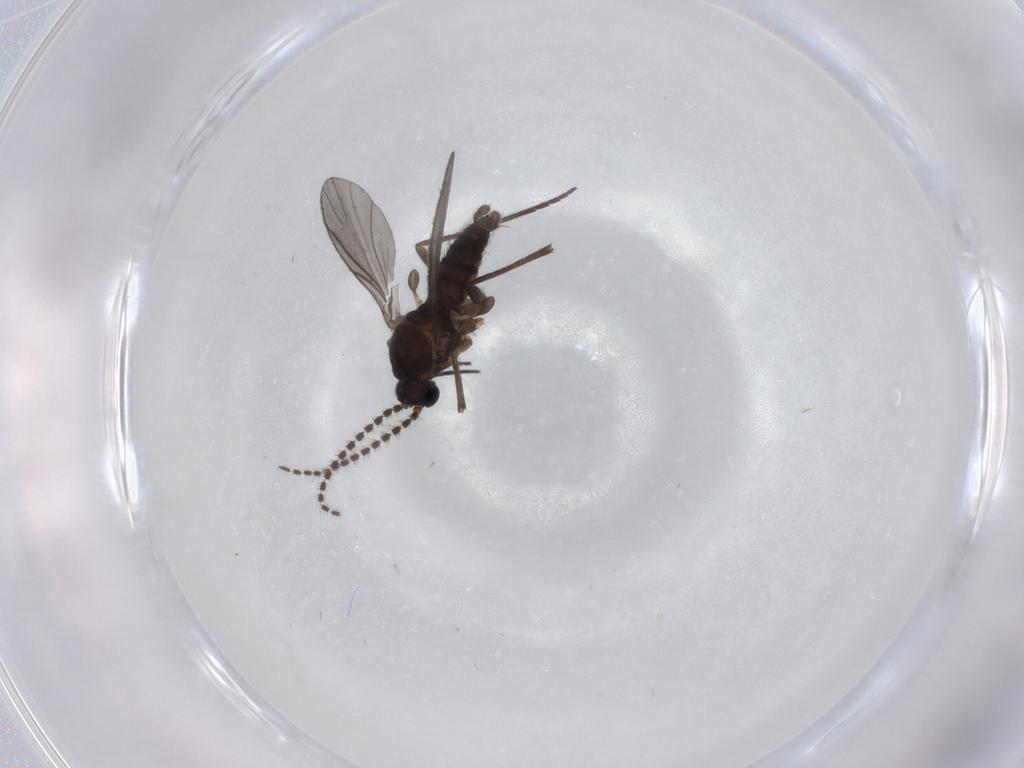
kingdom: Animalia
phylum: Arthropoda
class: Insecta
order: Diptera
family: Sciaridae
